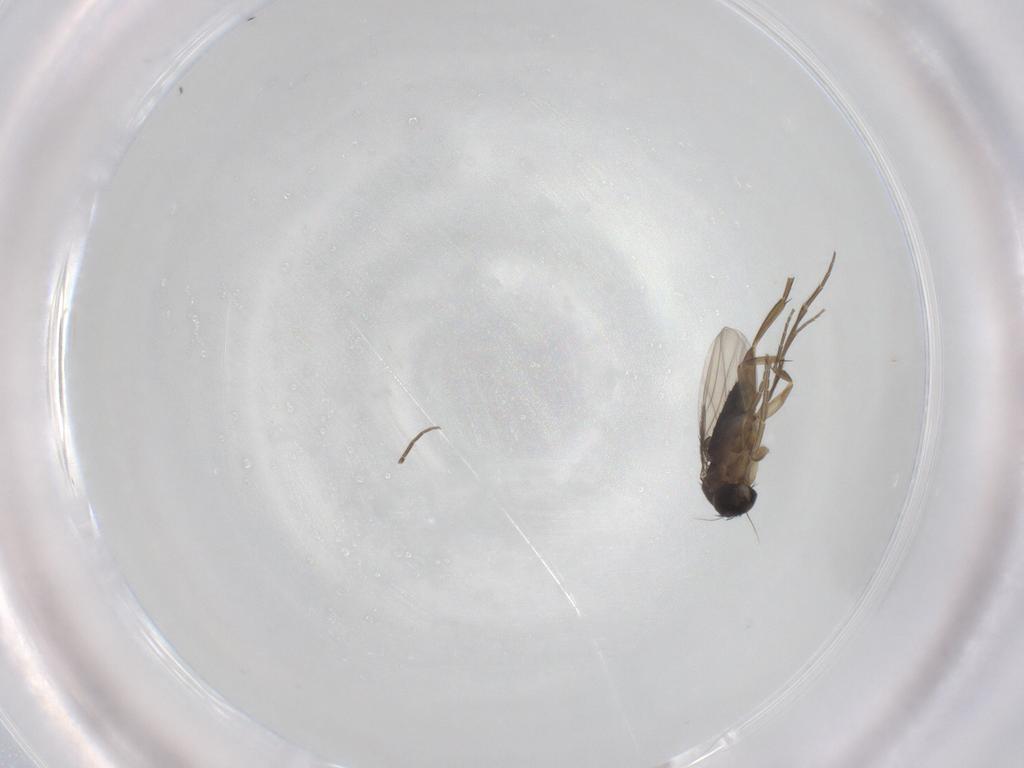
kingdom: Animalia
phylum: Arthropoda
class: Insecta
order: Diptera
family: Phoridae
